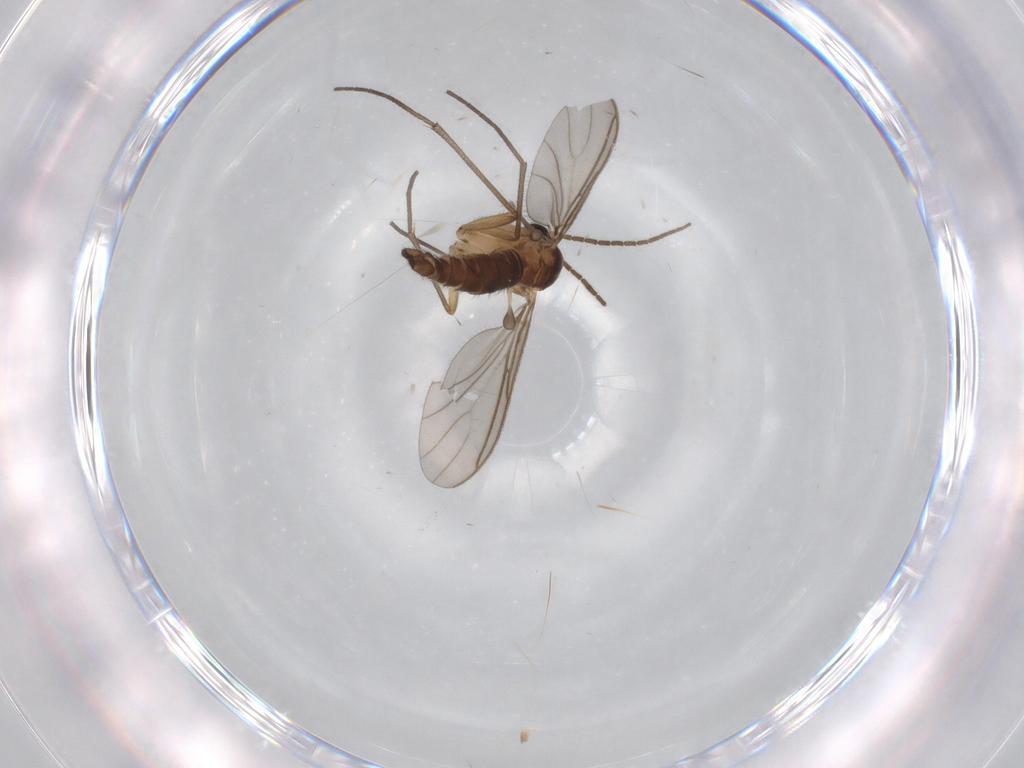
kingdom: Animalia
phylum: Arthropoda
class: Insecta
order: Diptera
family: Sciaridae
